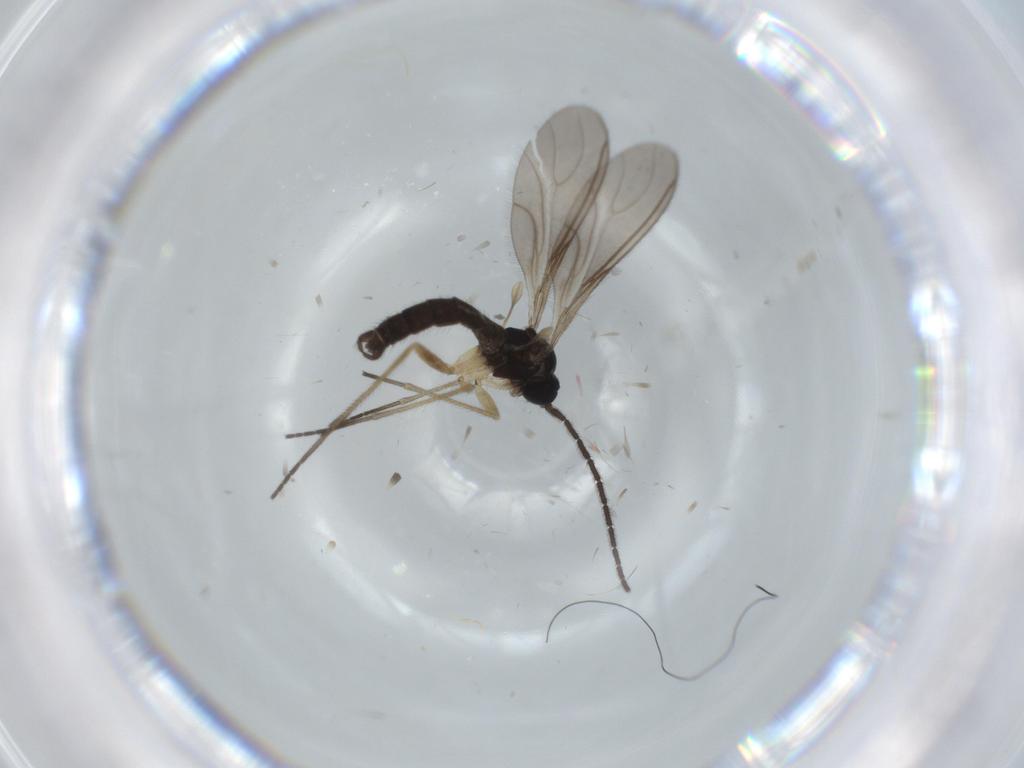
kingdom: Animalia
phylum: Arthropoda
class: Insecta
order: Diptera
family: Sciaridae
